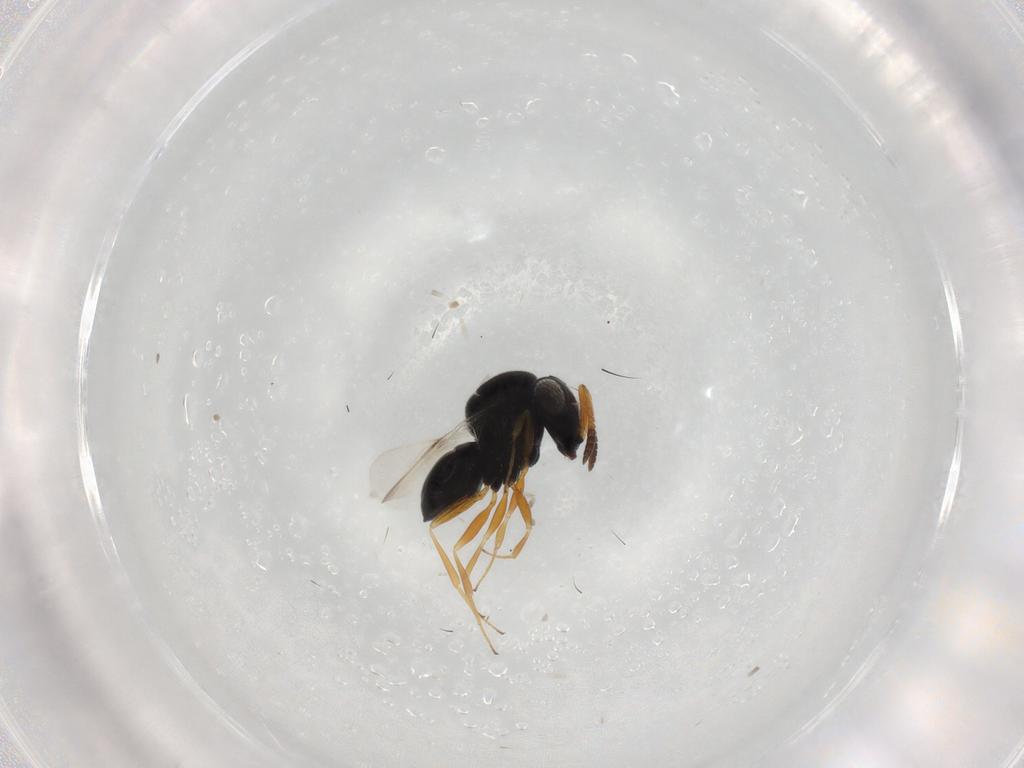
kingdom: Animalia
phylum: Arthropoda
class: Insecta
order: Hymenoptera
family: Scelionidae
